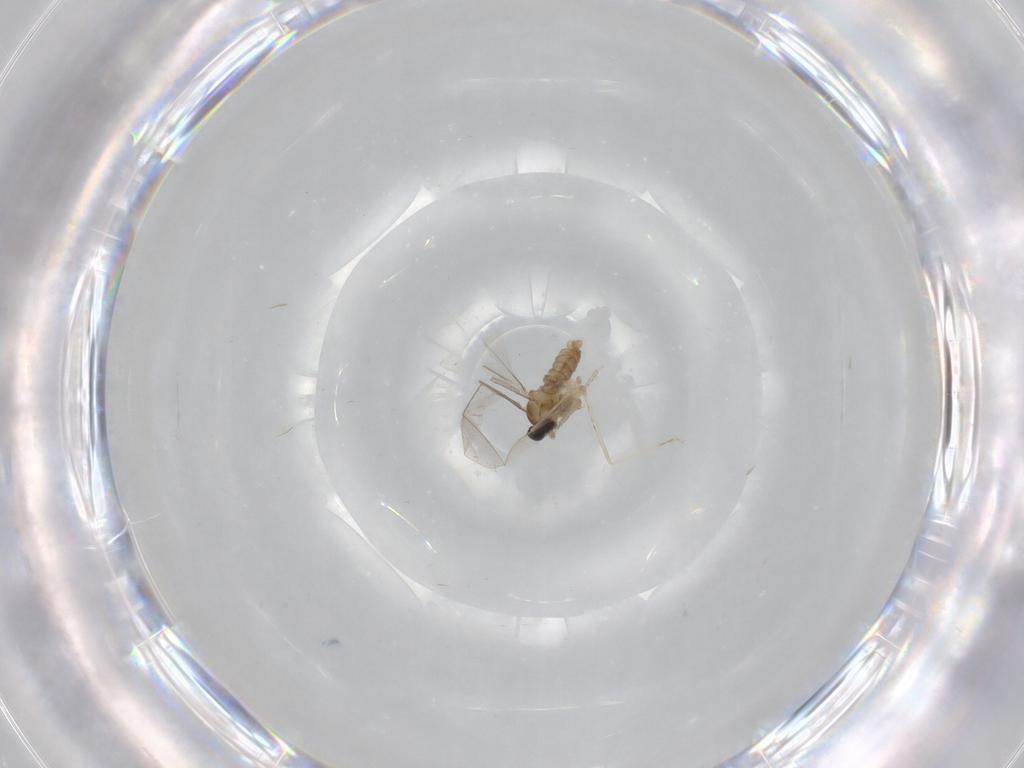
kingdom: Animalia
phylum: Arthropoda
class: Insecta
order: Diptera
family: Cecidomyiidae
